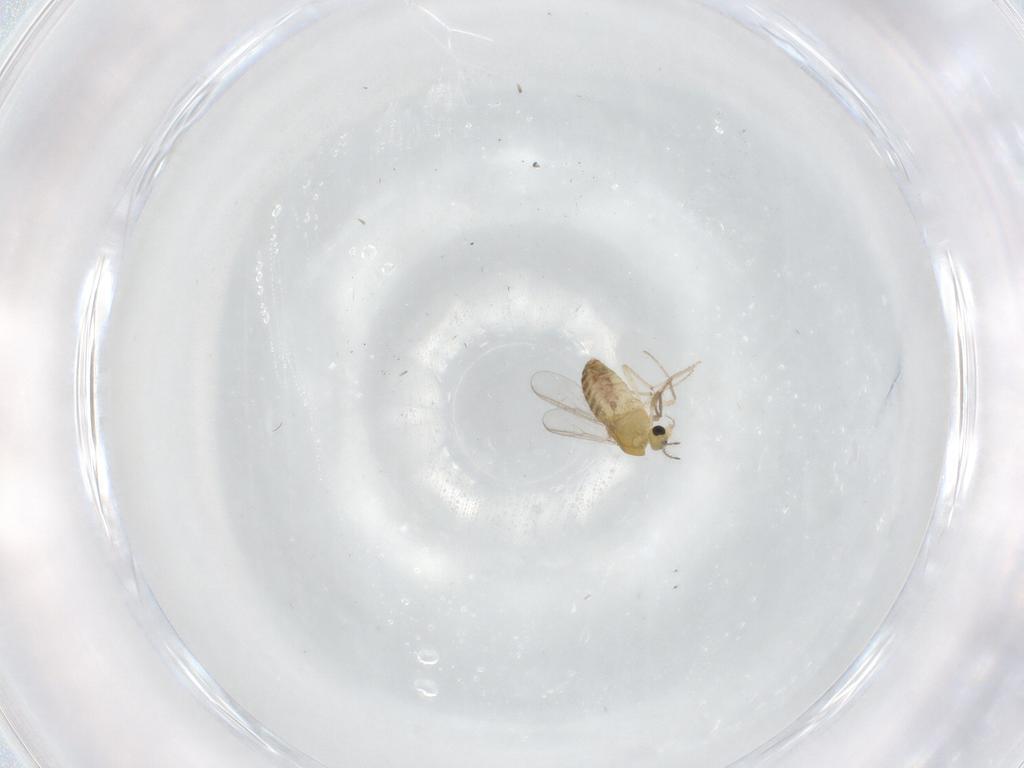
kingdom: Animalia
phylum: Arthropoda
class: Insecta
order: Diptera
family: Chironomidae
